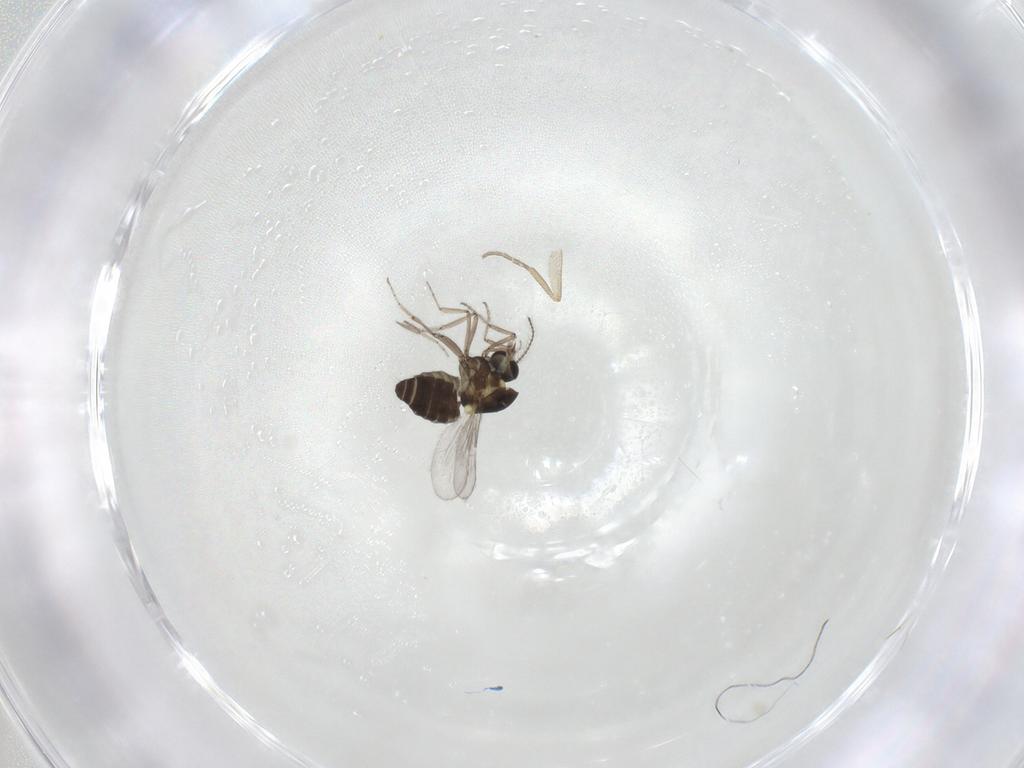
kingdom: Animalia
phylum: Arthropoda
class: Insecta
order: Diptera
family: Ceratopogonidae
